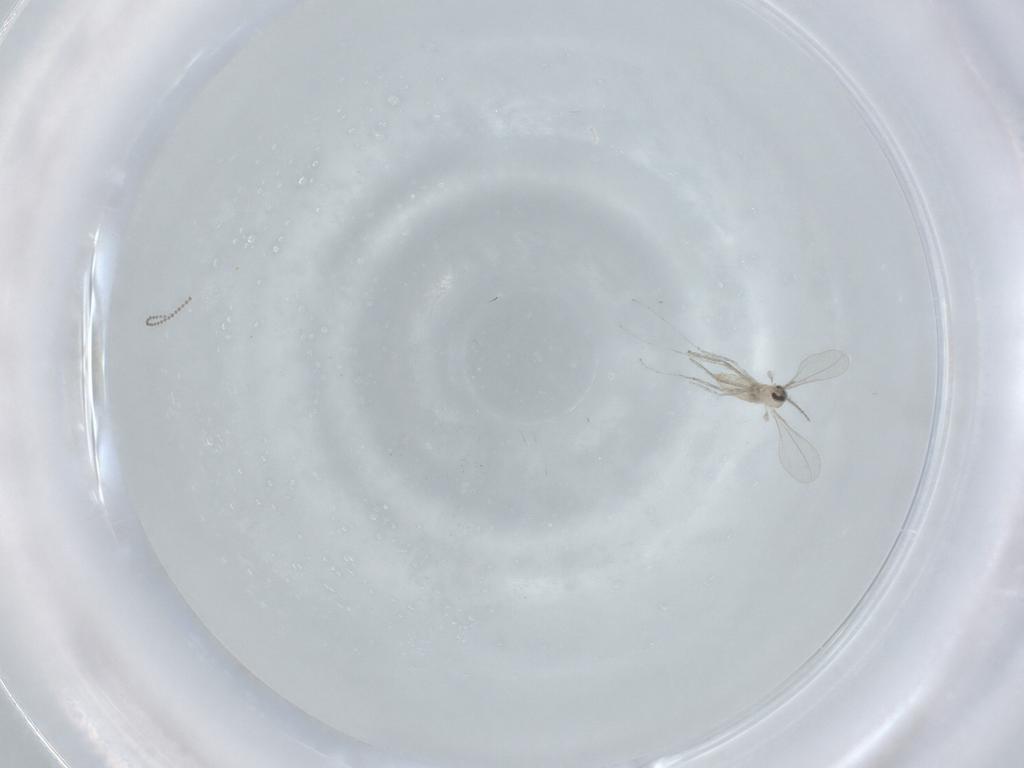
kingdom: Animalia
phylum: Arthropoda
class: Insecta
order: Diptera
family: Cecidomyiidae
